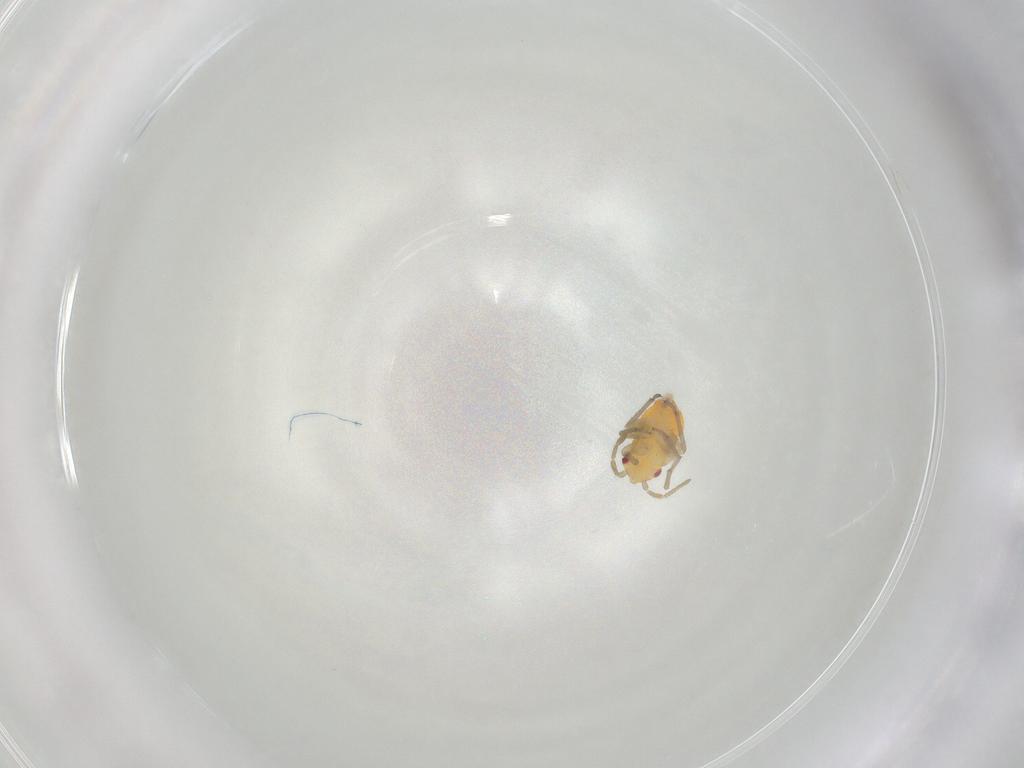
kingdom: Animalia
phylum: Arthropoda
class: Insecta
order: Hemiptera
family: Miridae
